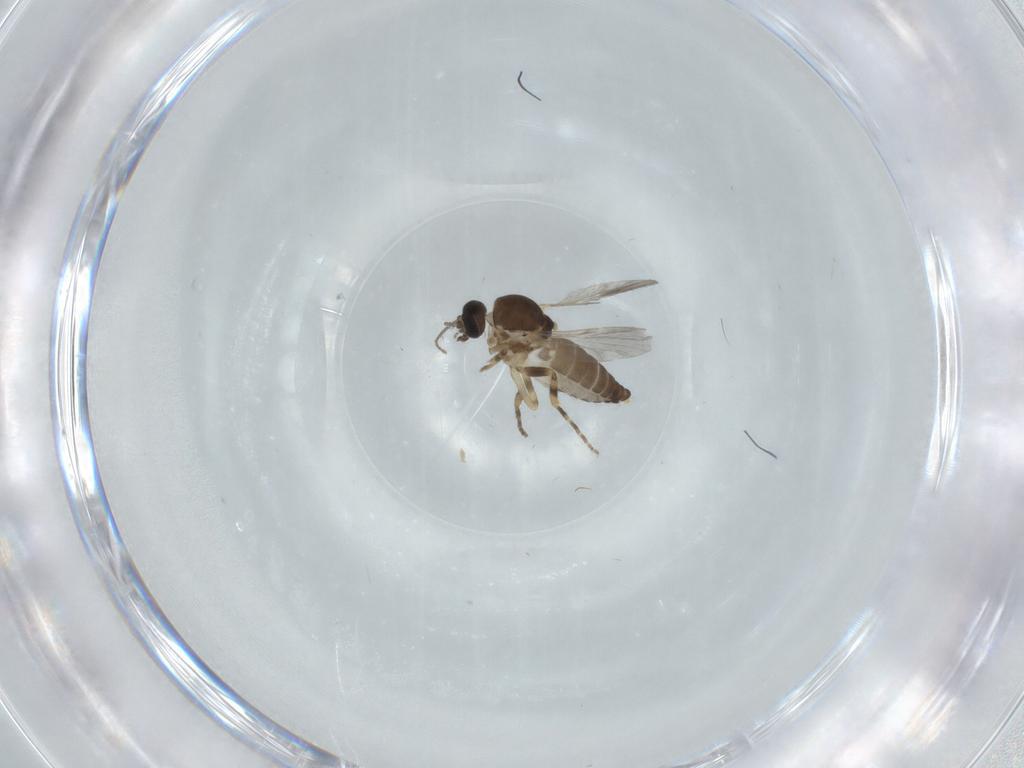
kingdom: Animalia
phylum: Arthropoda
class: Insecta
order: Diptera
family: Ceratopogonidae
